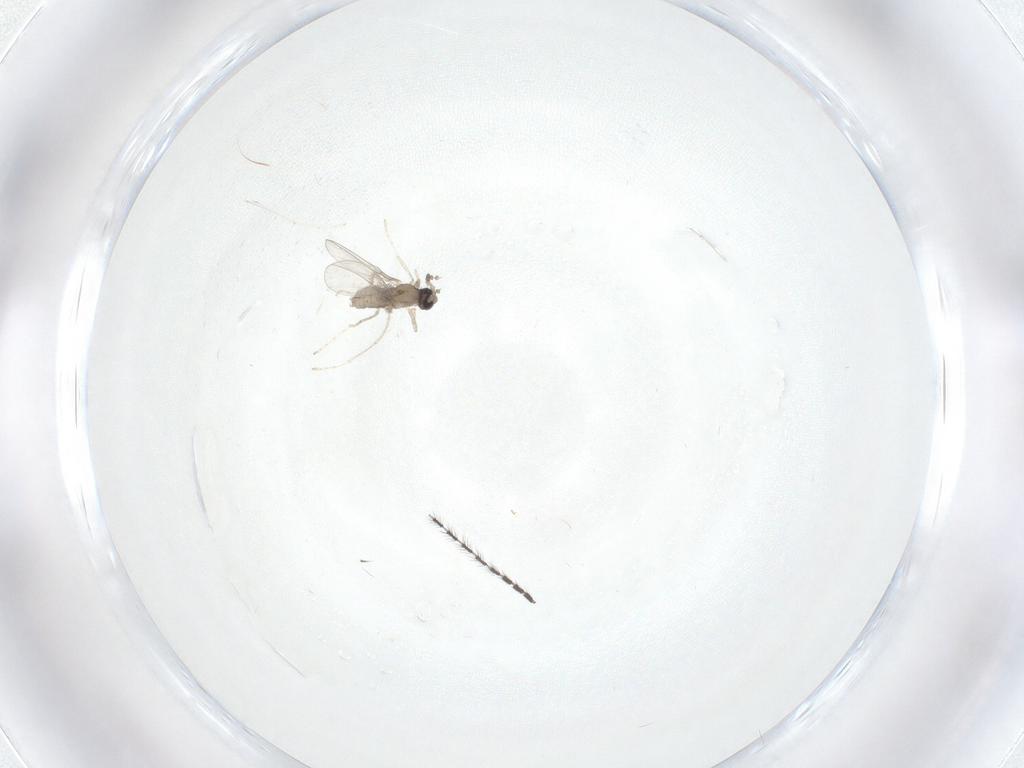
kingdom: Animalia
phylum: Arthropoda
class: Insecta
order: Diptera
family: Cecidomyiidae
